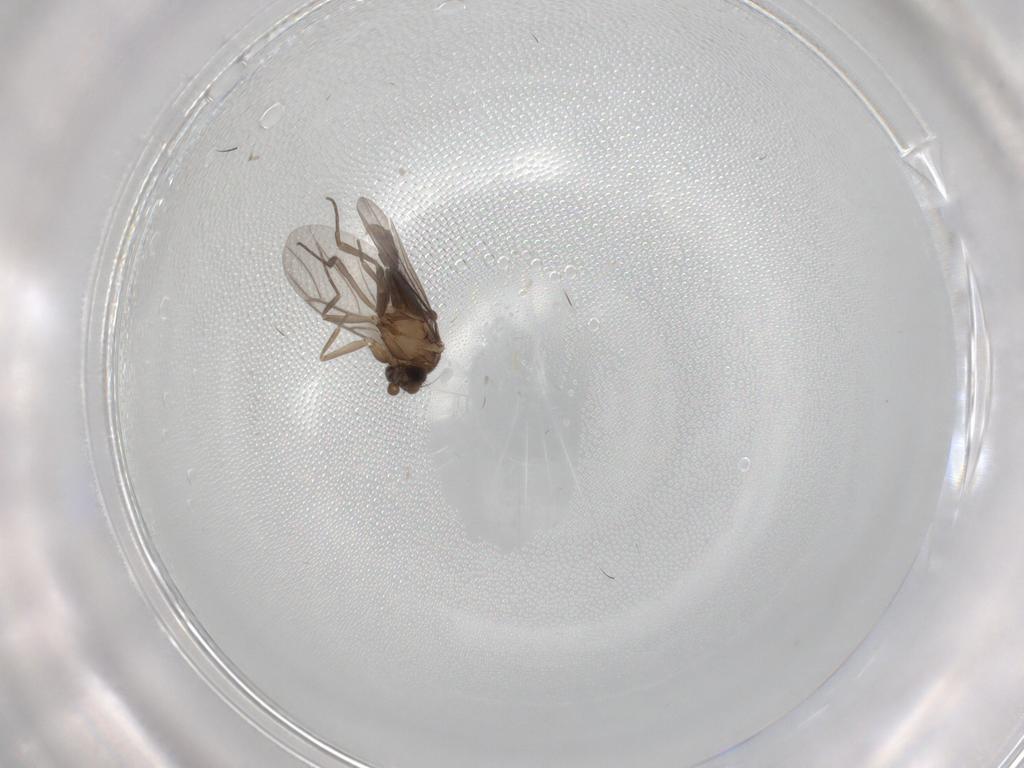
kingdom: Animalia
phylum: Arthropoda
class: Insecta
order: Diptera
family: Phoridae
